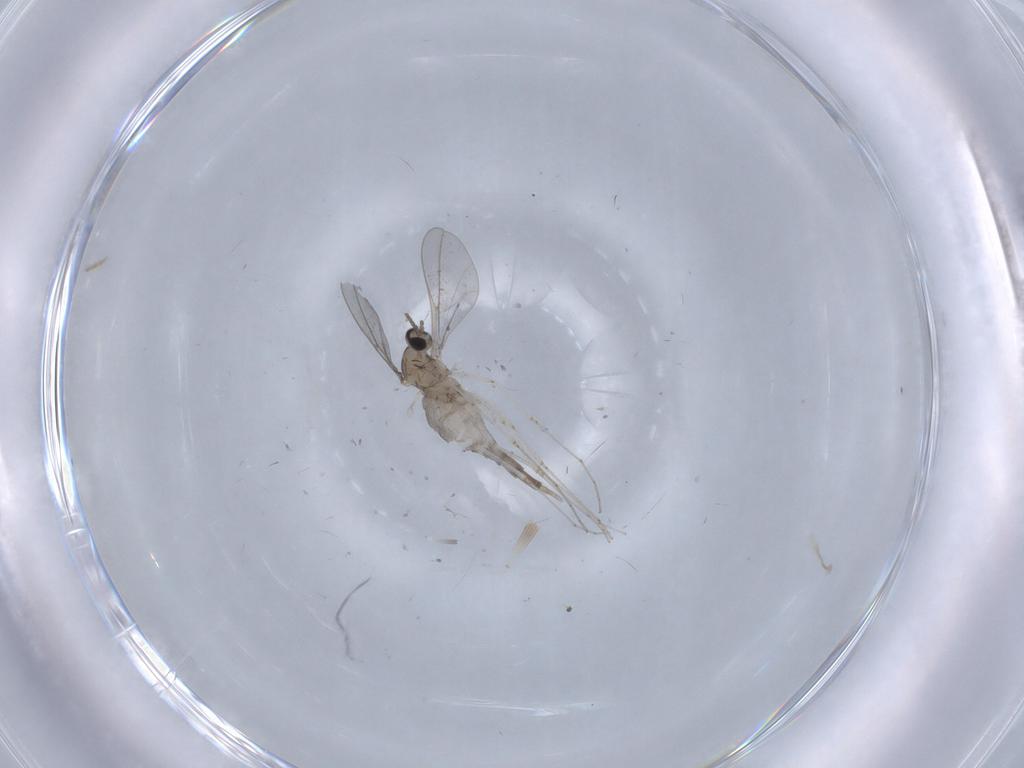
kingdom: Animalia
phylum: Arthropoda
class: Insecta
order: Diptera
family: Cecidomyiidae
